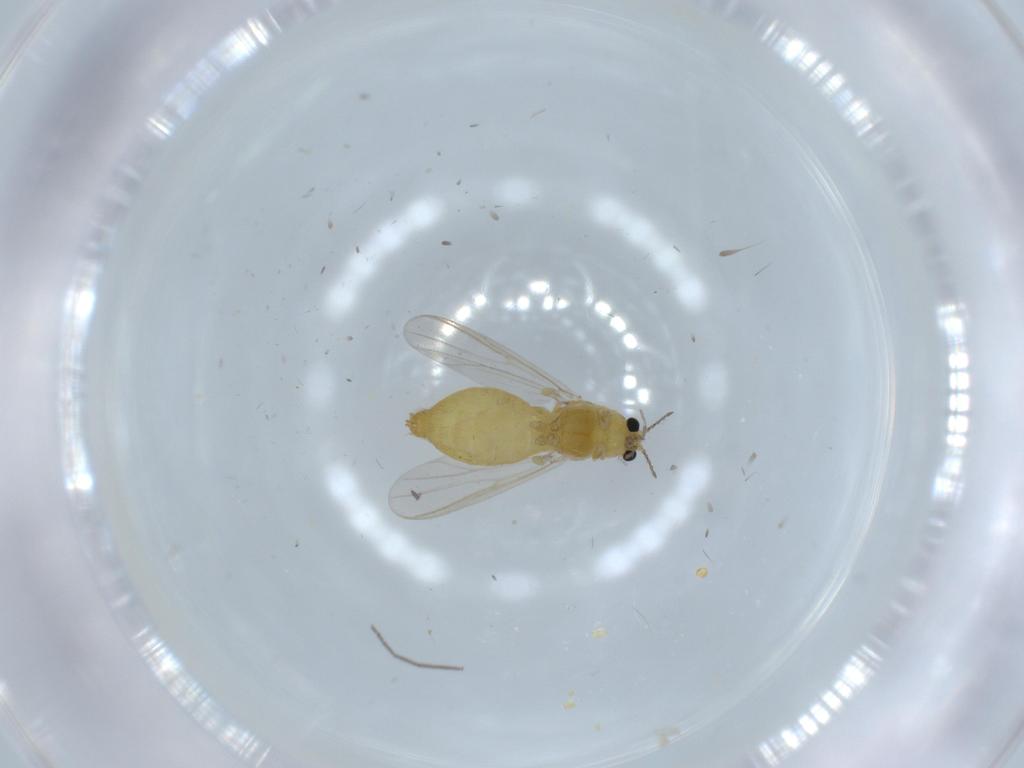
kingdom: Animalia
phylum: Arthropoda
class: Insecta
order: Diptera
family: Chironomidae
